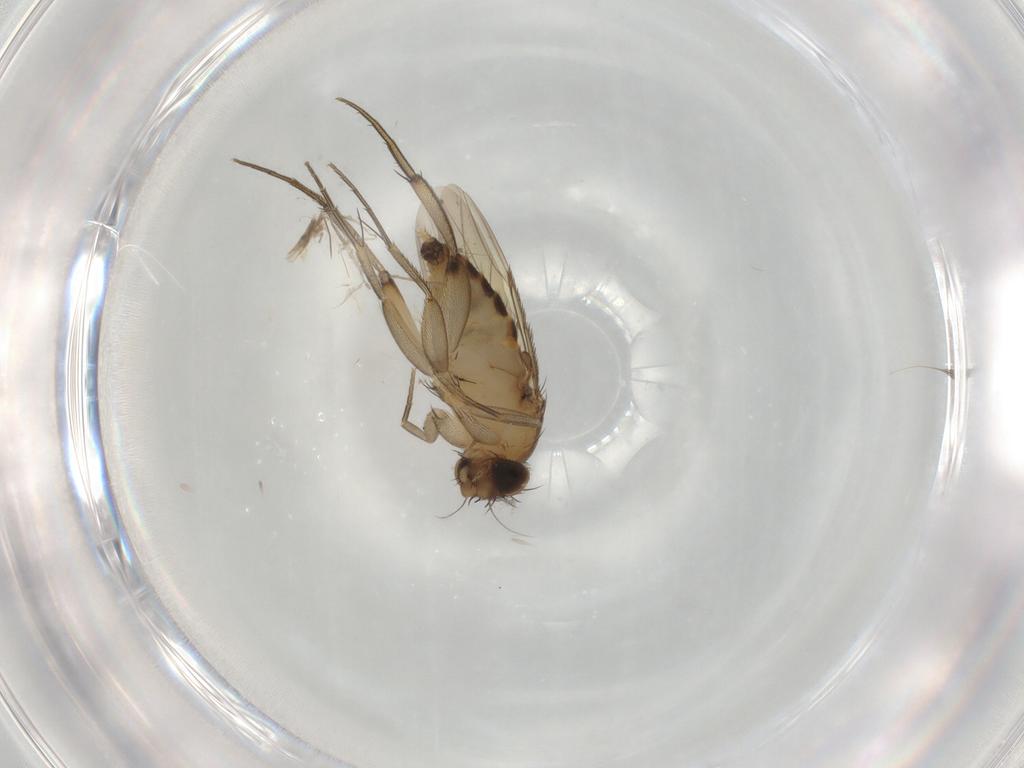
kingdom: Animalia
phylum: Arthropoda
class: Insecta
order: Diptera
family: Phoridae
